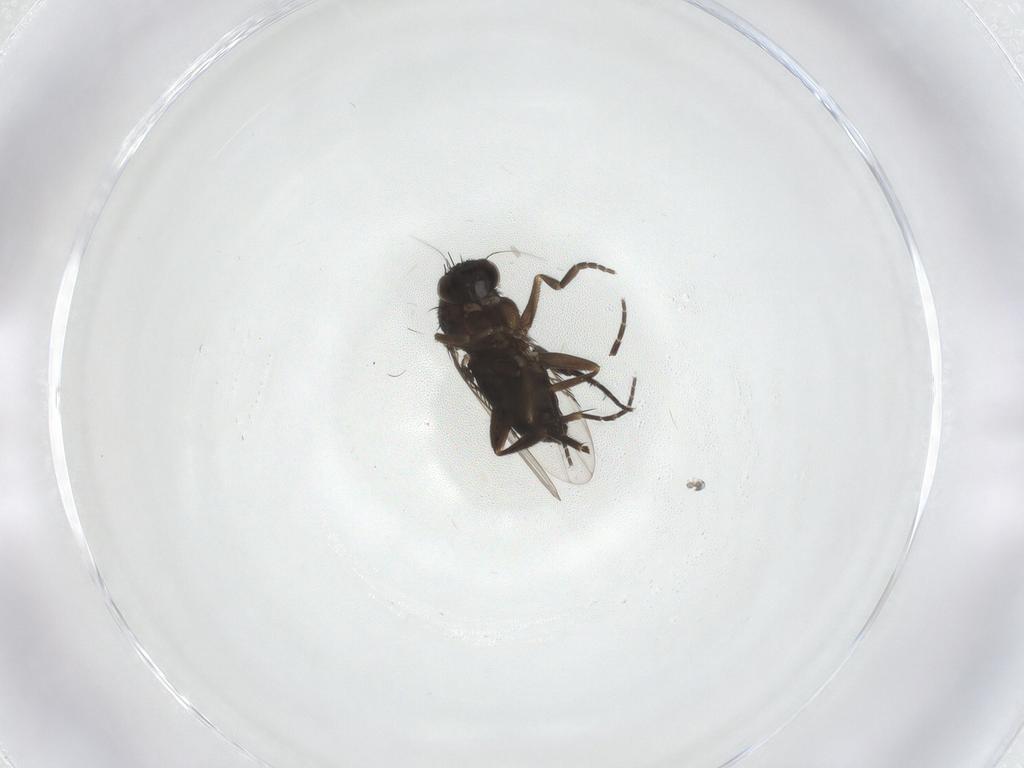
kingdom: Animalia
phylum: Arthropoda
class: Insecta
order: Diptera
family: Phoridae
